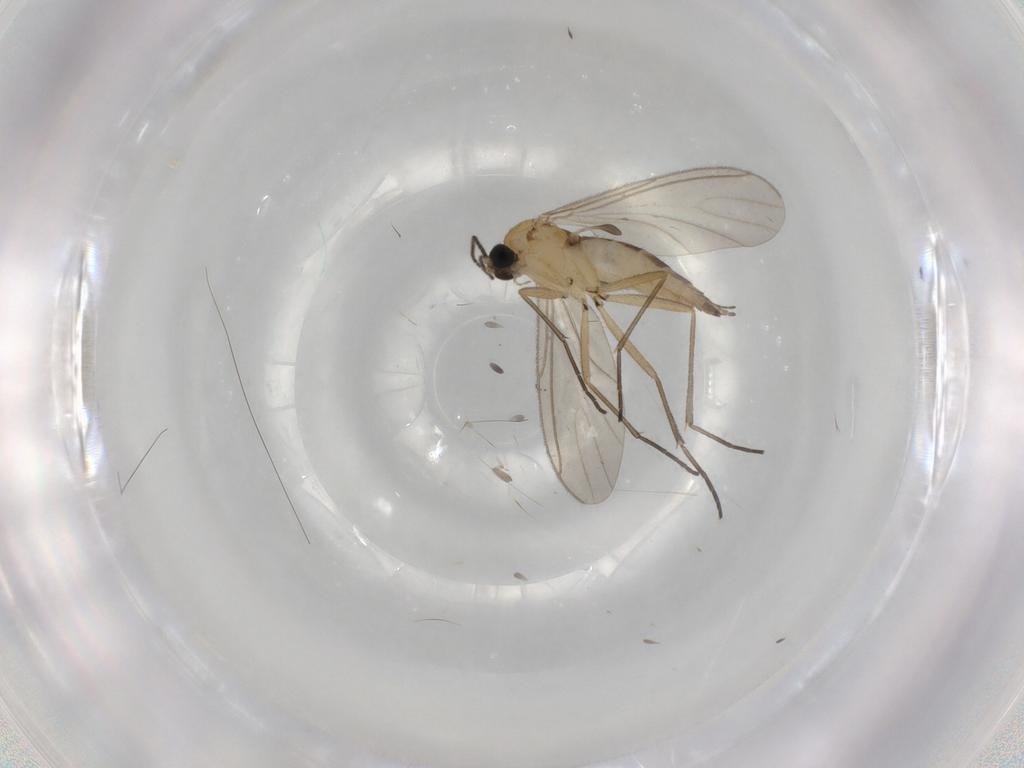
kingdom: Animalia
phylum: Arthropoda
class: Insecta
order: Diptera
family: Sciaridae
